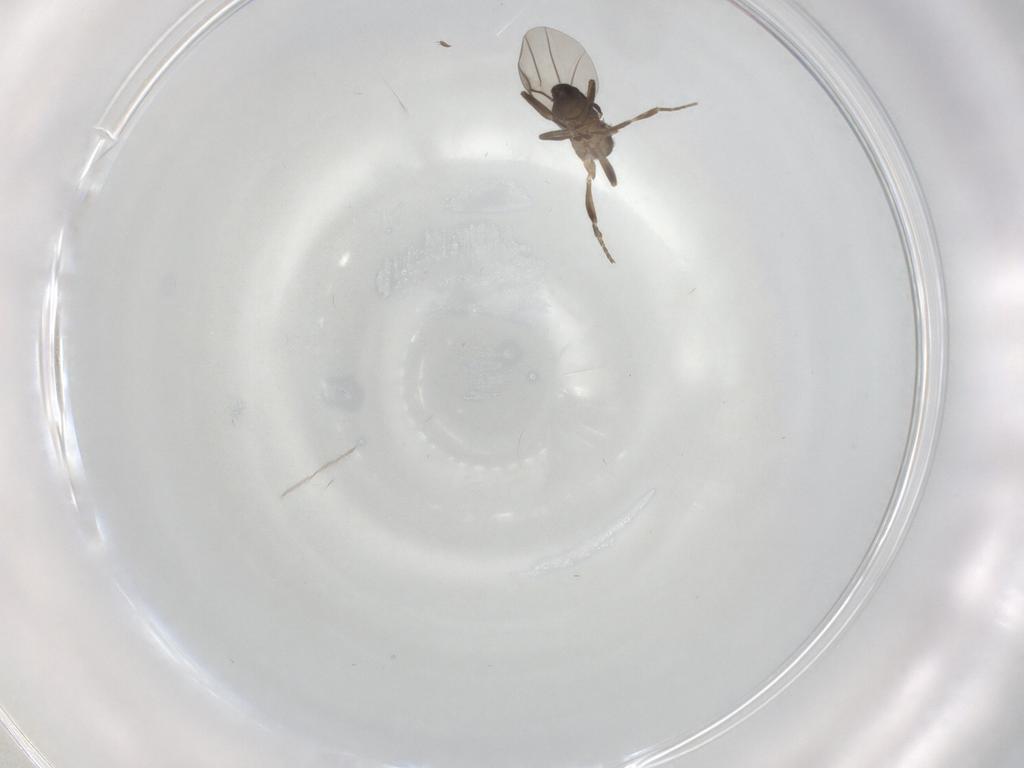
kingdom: Animalia
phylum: Arthropoda
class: Insecta
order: Diptera
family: Chironomidae
